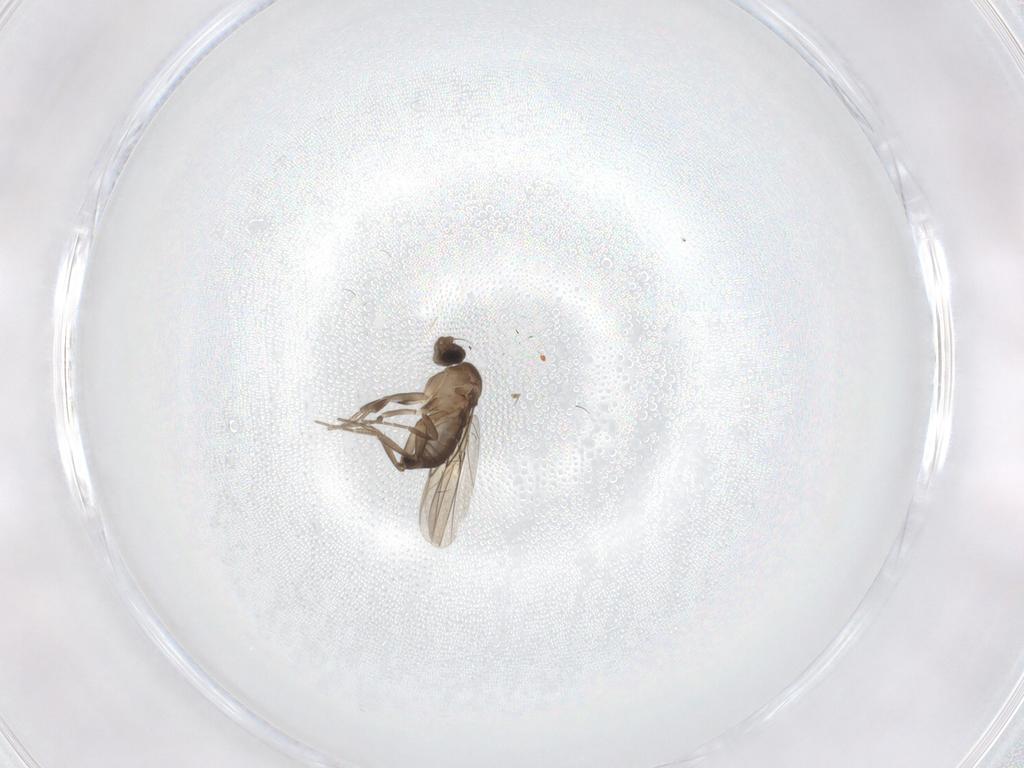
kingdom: Animalia
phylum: Arthropoda
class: Insecta
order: Diptera
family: Phoridae
